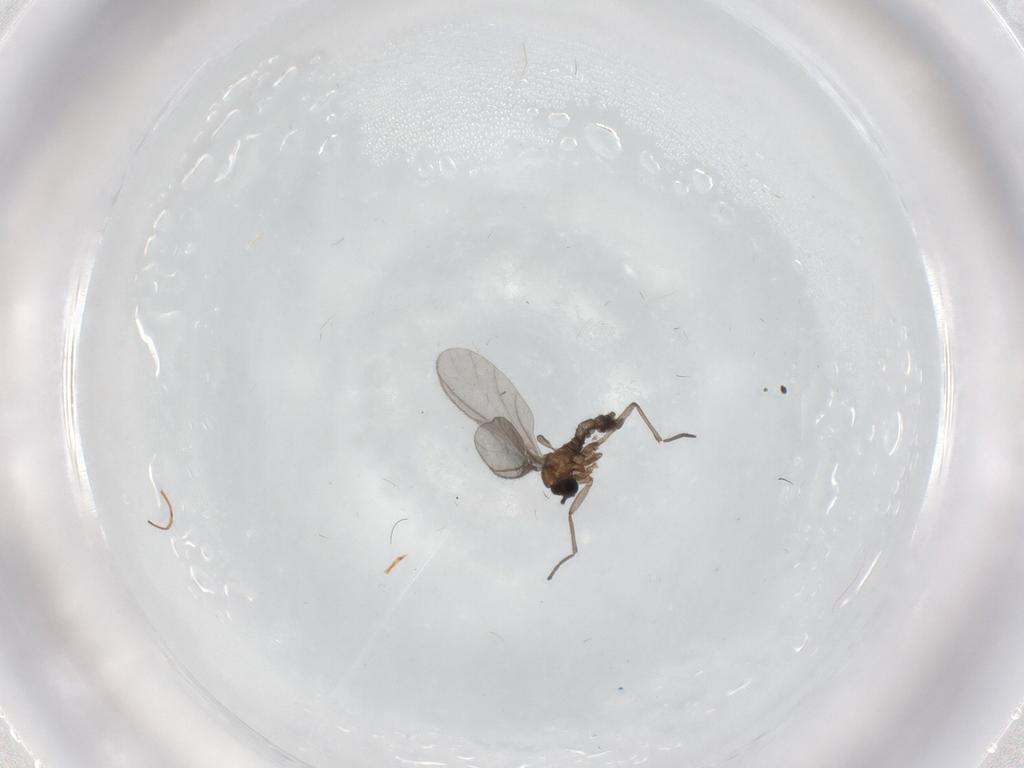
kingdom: Animalia
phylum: Arthropoda
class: Insecta
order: Diptera
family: Sciaridae
